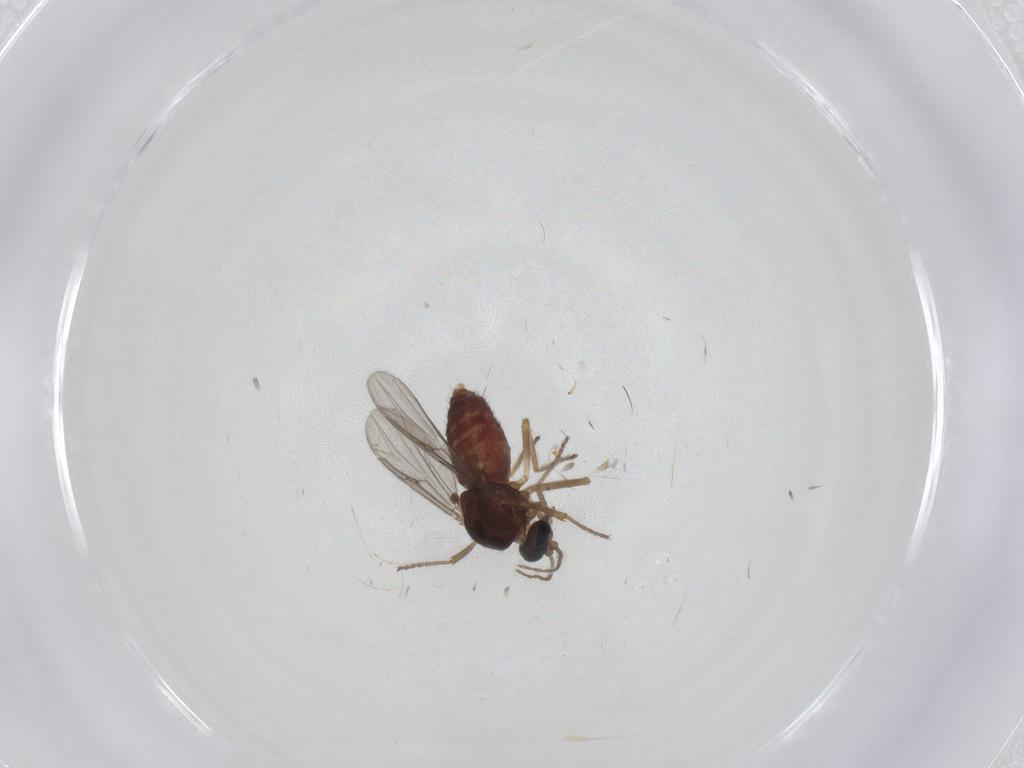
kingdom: Animalia
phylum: Arthropoda
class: Insecta
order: Diptera
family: Ceratopogonidae
